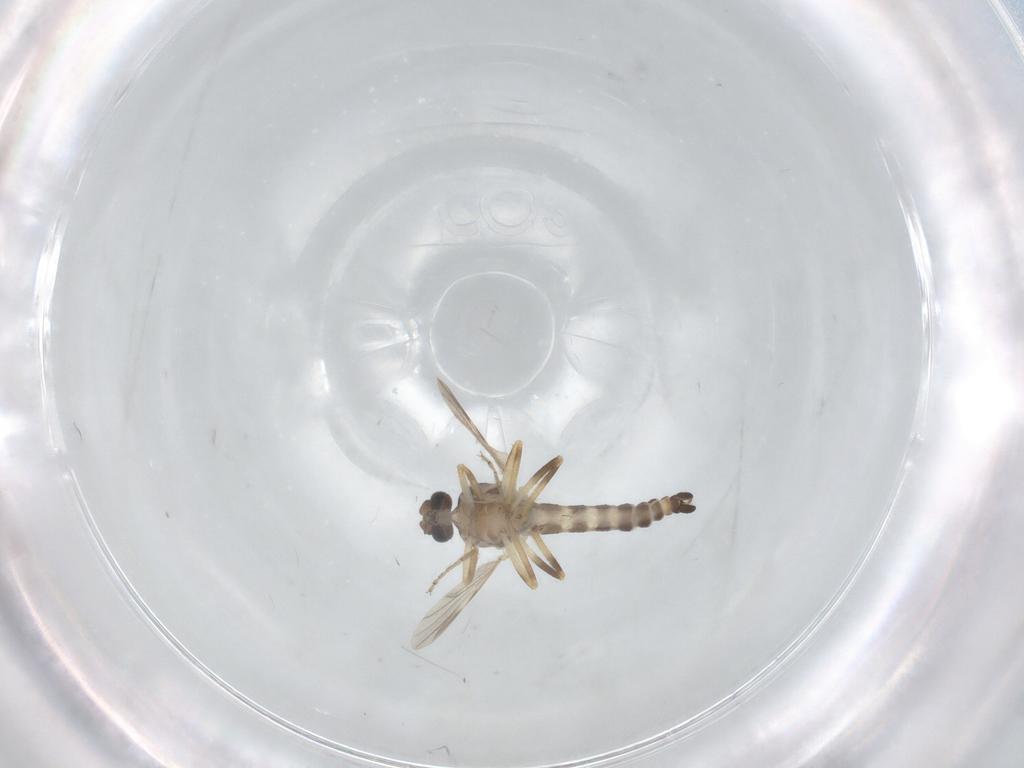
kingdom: Animalia
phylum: Arthropoda
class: Insecta
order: Diptera
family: Ceratopogonidae
